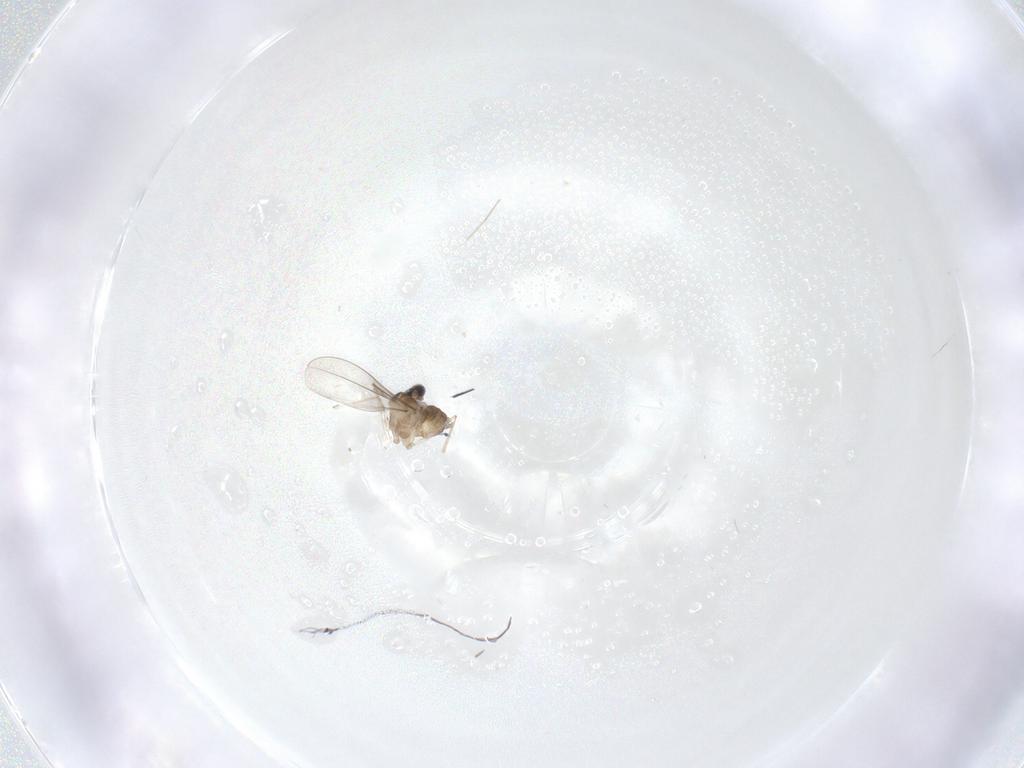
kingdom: Animalia
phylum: Arthropoda
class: Insecta
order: Diptera
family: Cecidomyiidae
